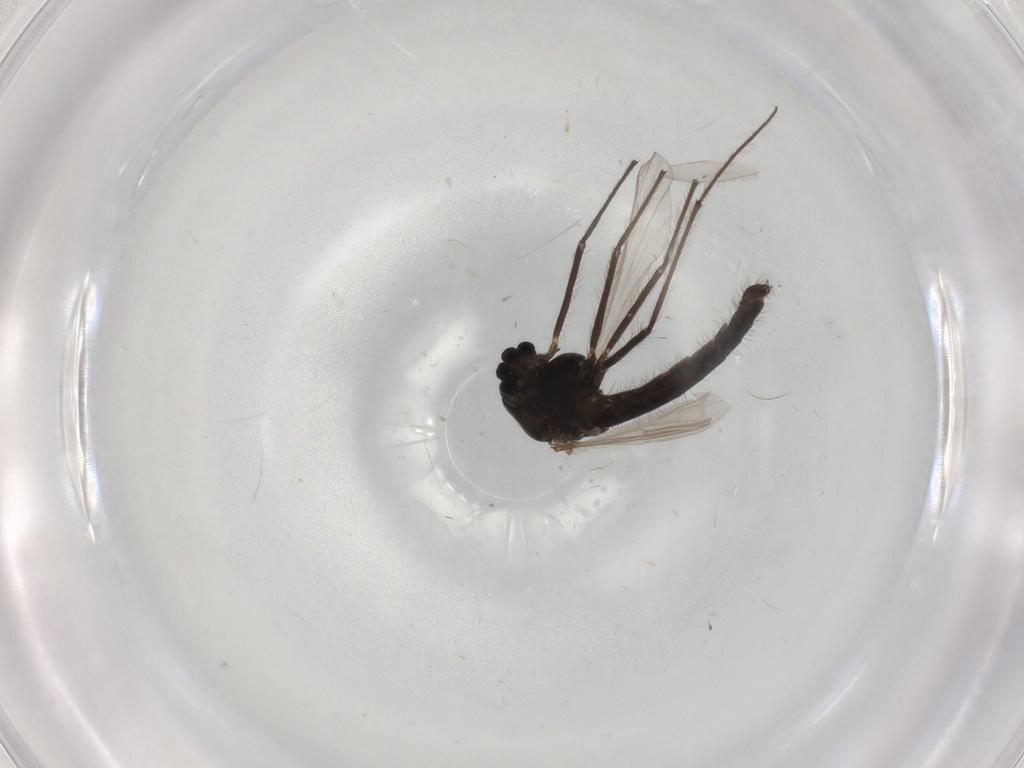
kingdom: Animalia
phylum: Arthropoda
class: Insecta
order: Diptera
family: Chironomidae
